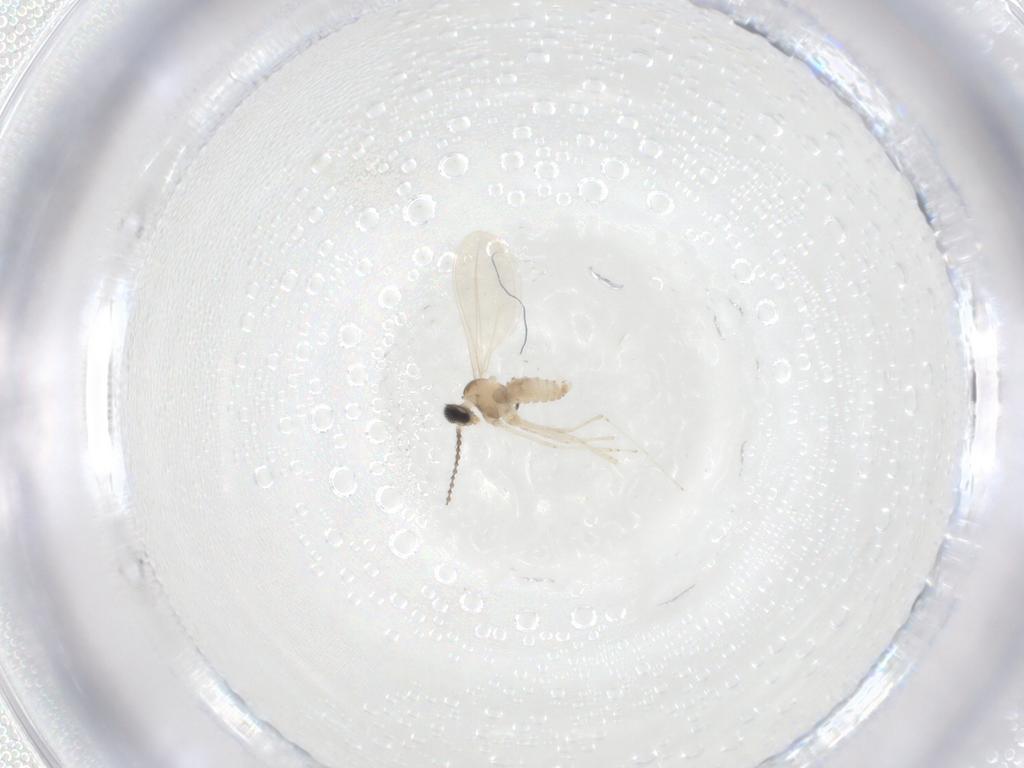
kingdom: Animalia
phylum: Arthropoda
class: Insecta
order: Diptera
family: Cecidomyiidae
